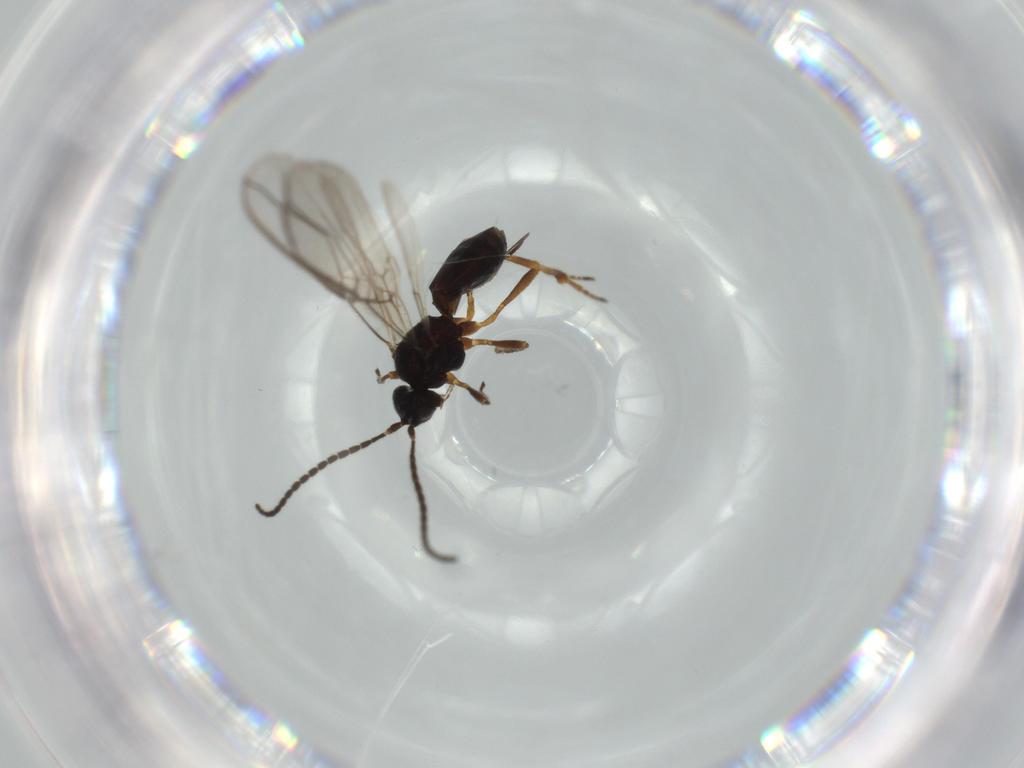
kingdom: Animalia
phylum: Arthropoda
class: Insecta
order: Hymenoptera
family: Braconidae
